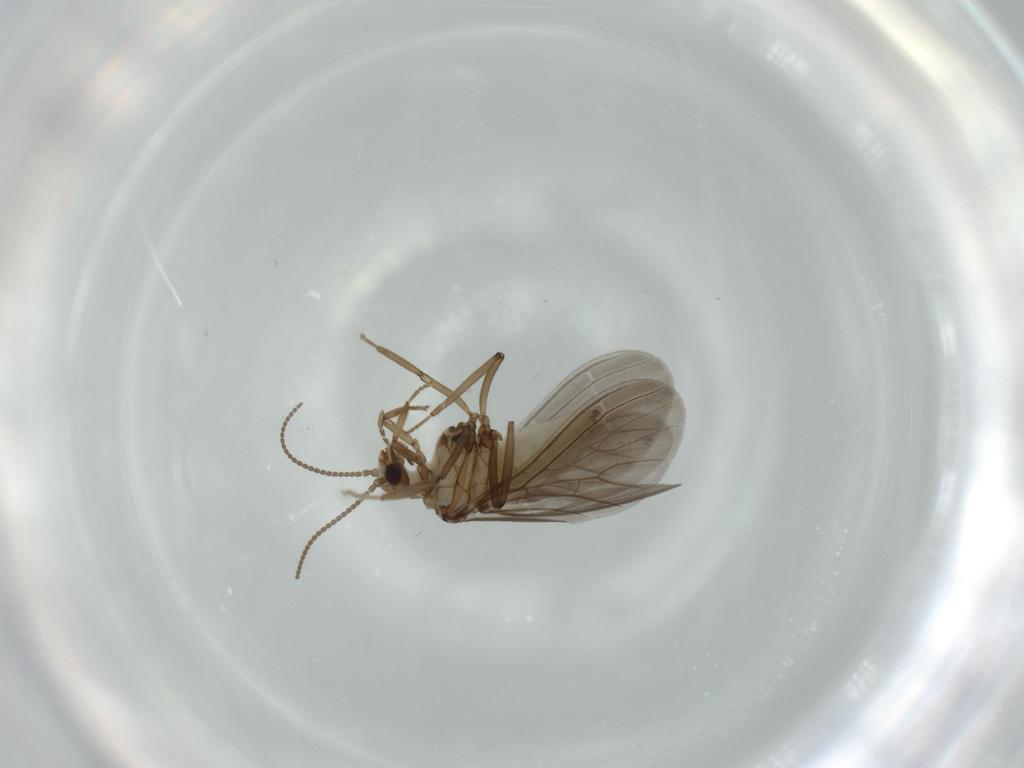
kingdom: Animalia
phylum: Arthropoda
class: Insecta
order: Neuroptera
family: Coniopterygidae
